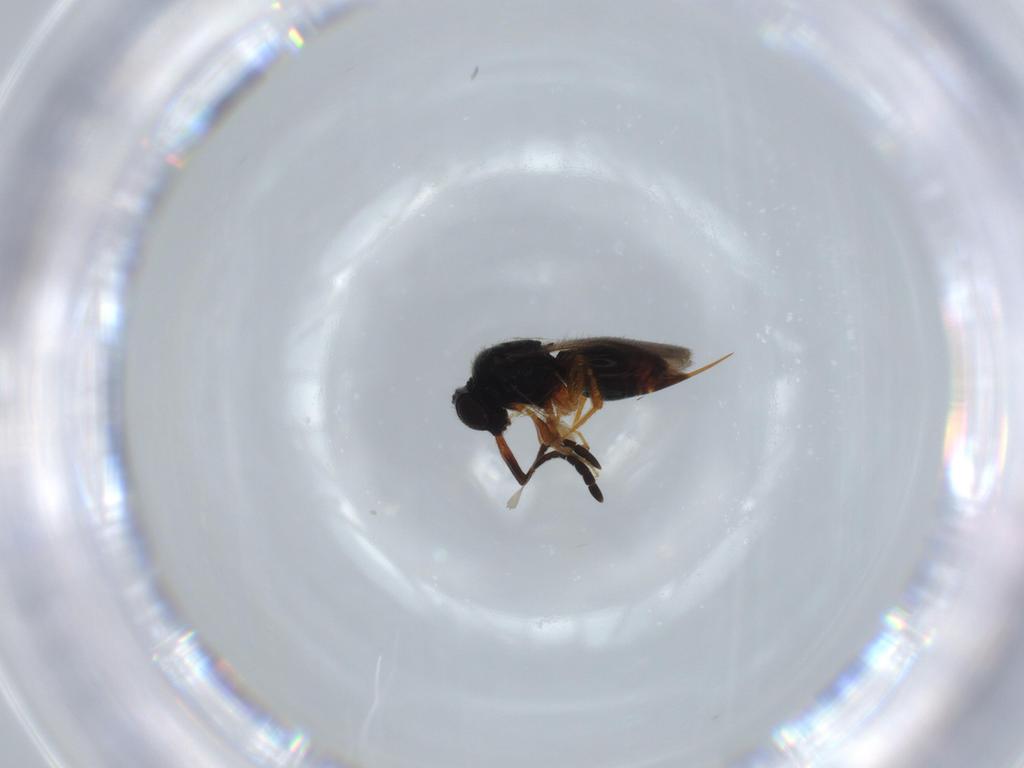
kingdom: Animalia
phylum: Arthropoda
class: Insecta
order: Hymenoptera
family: Ceraphronidae
